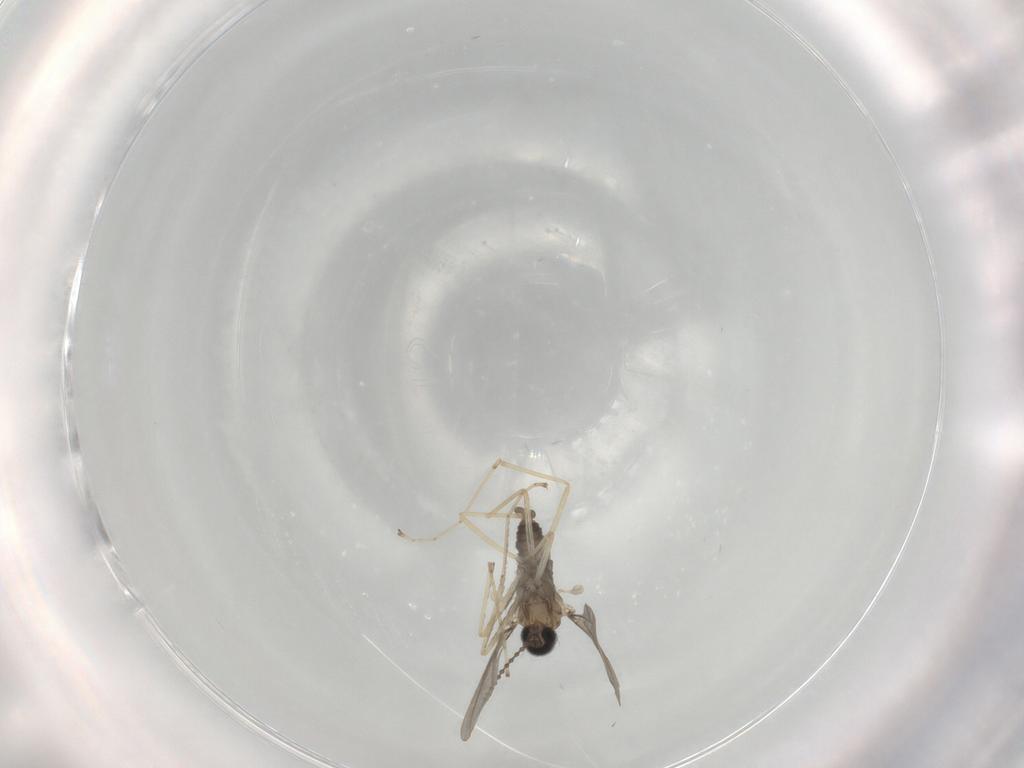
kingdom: Animalia
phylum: Arthropoda
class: Insecta
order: Diptera
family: Cecidomyiidae
